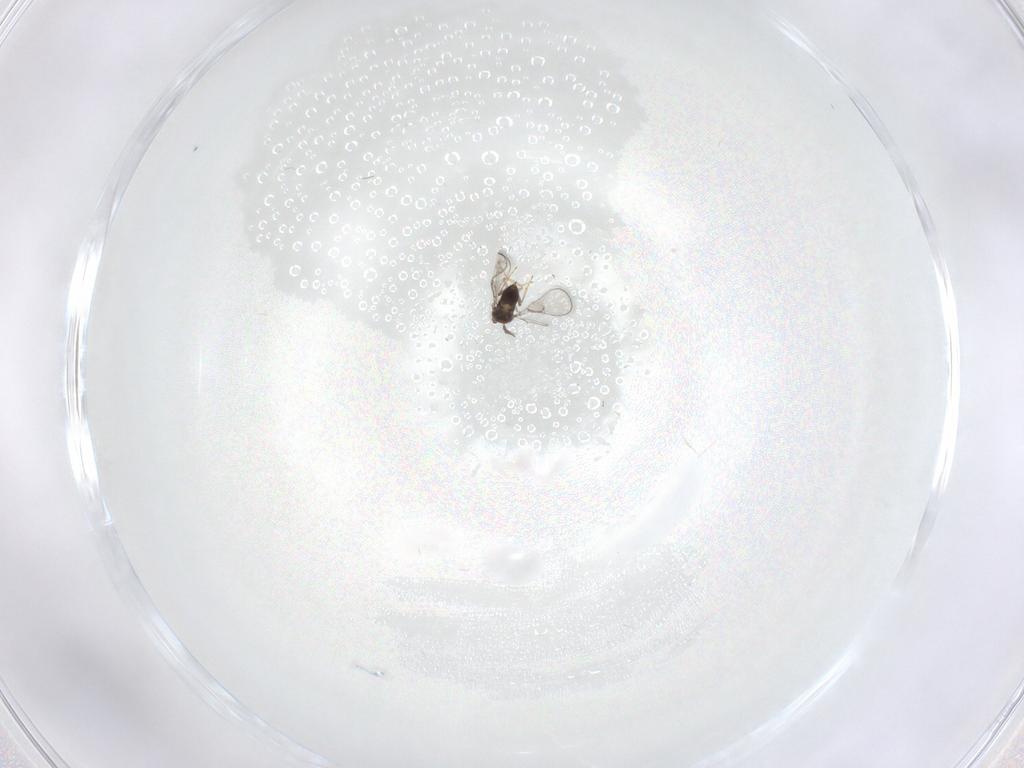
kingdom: Animalia
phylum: Arthropoda
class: Insecta
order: Hymenoptera
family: Trichogrammatidae
